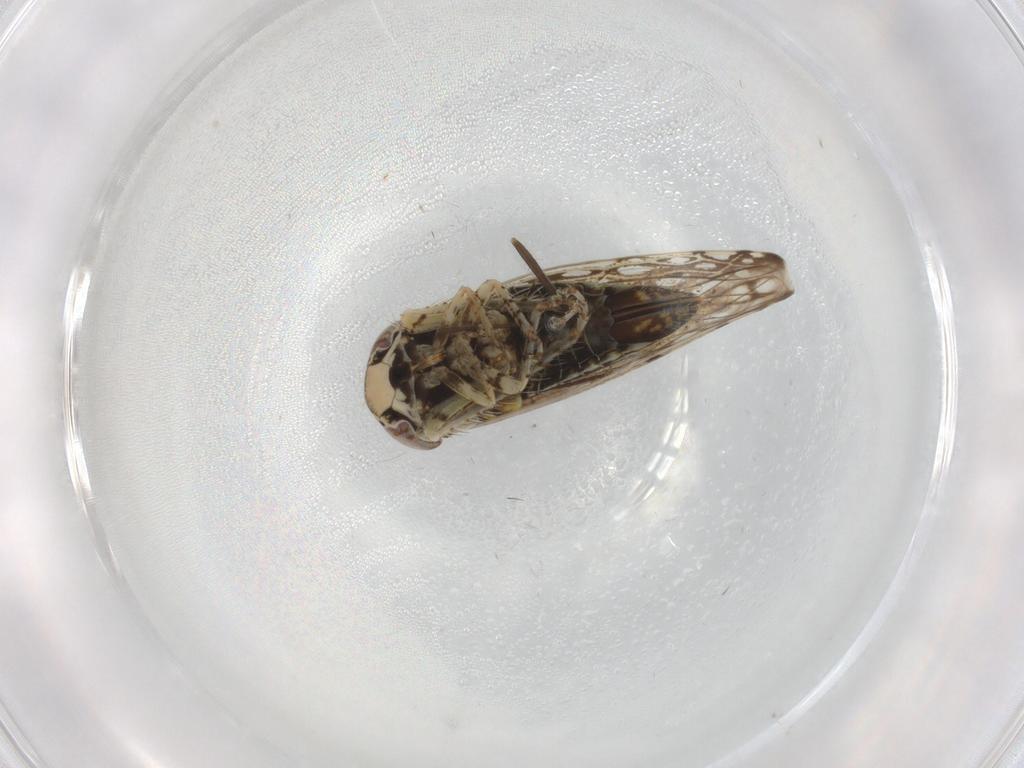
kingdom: Animalia
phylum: Arthropoda
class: Insecta
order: Hemiptera
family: Cicadellidae
